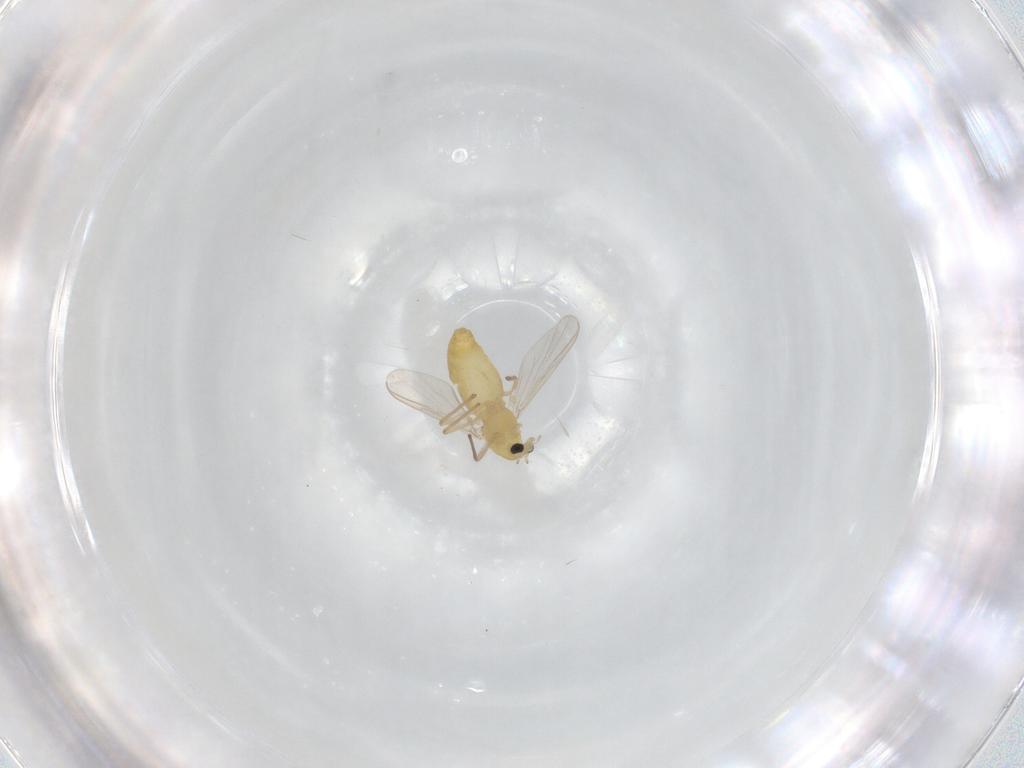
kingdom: Animalia
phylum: Arthropoda
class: Insecta
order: Diptera
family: Chironomidae
